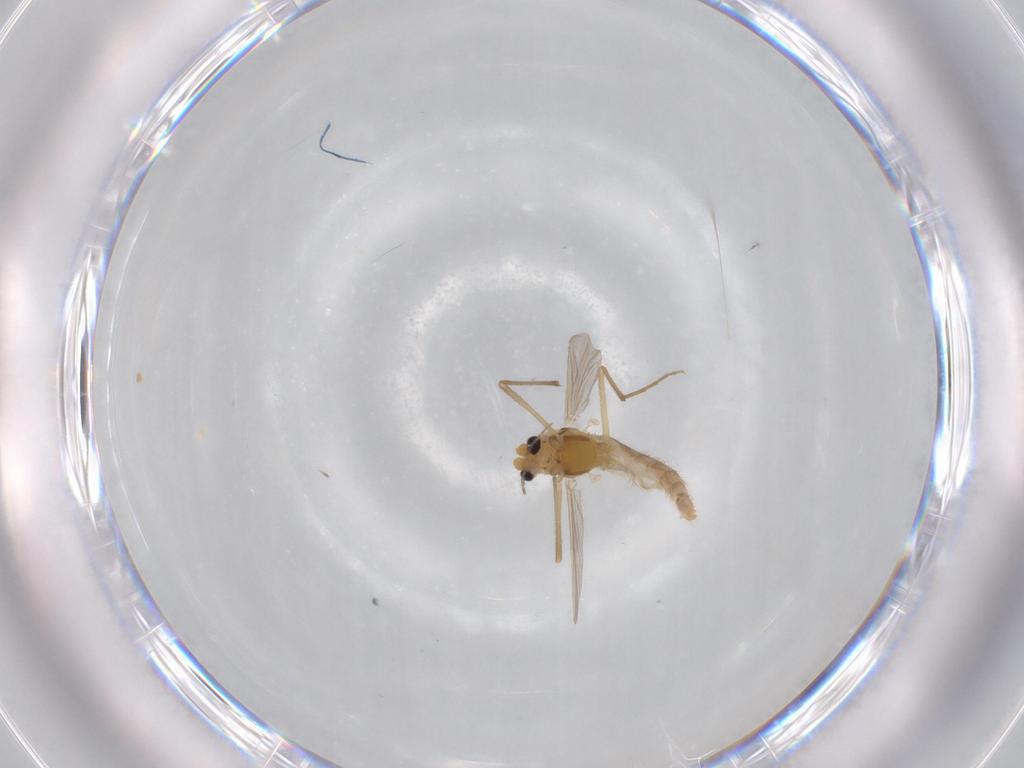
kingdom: Animalia
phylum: Arthropoda
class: Insecta
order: Diptera
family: Chironomidae
